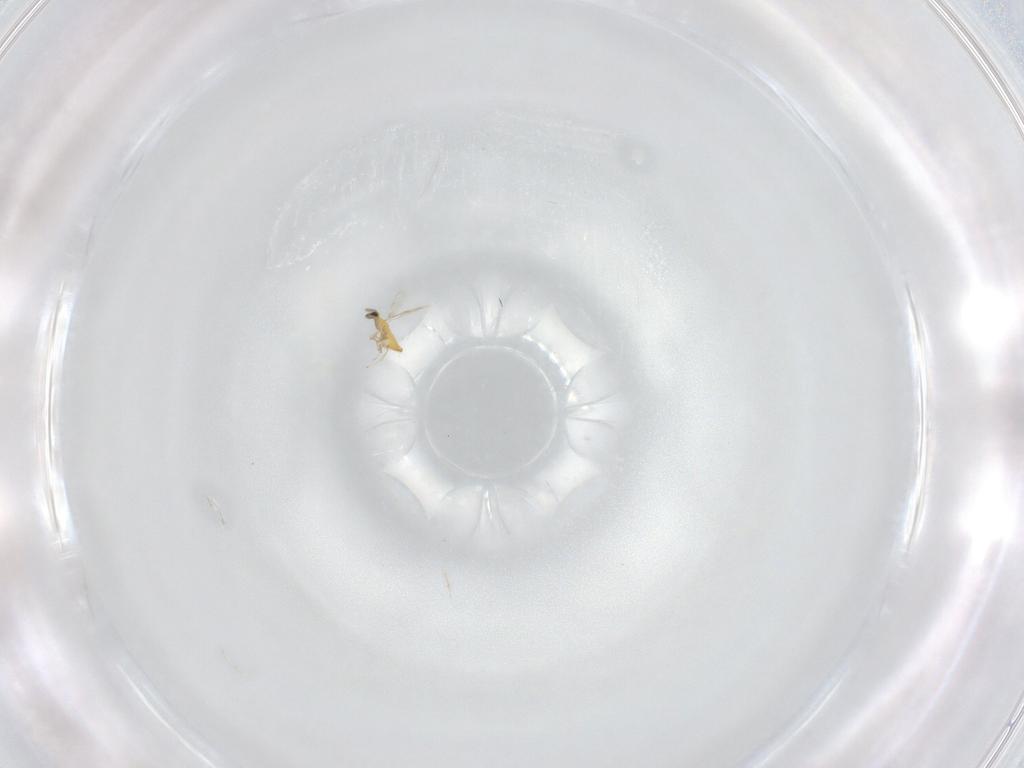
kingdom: Animalia
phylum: Arthropoda
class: Insecta
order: Hymenoptera
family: Trichogrammatidae
